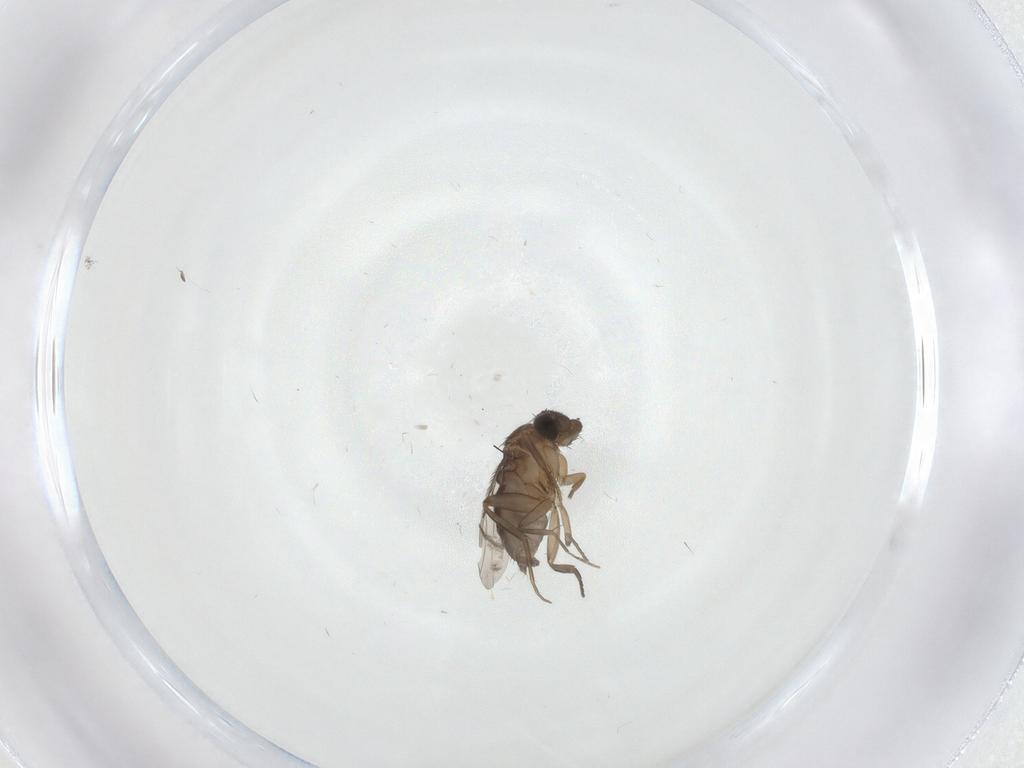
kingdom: Animalia
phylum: Arthropoda
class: Insecta
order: Diptera
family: Phoridae
